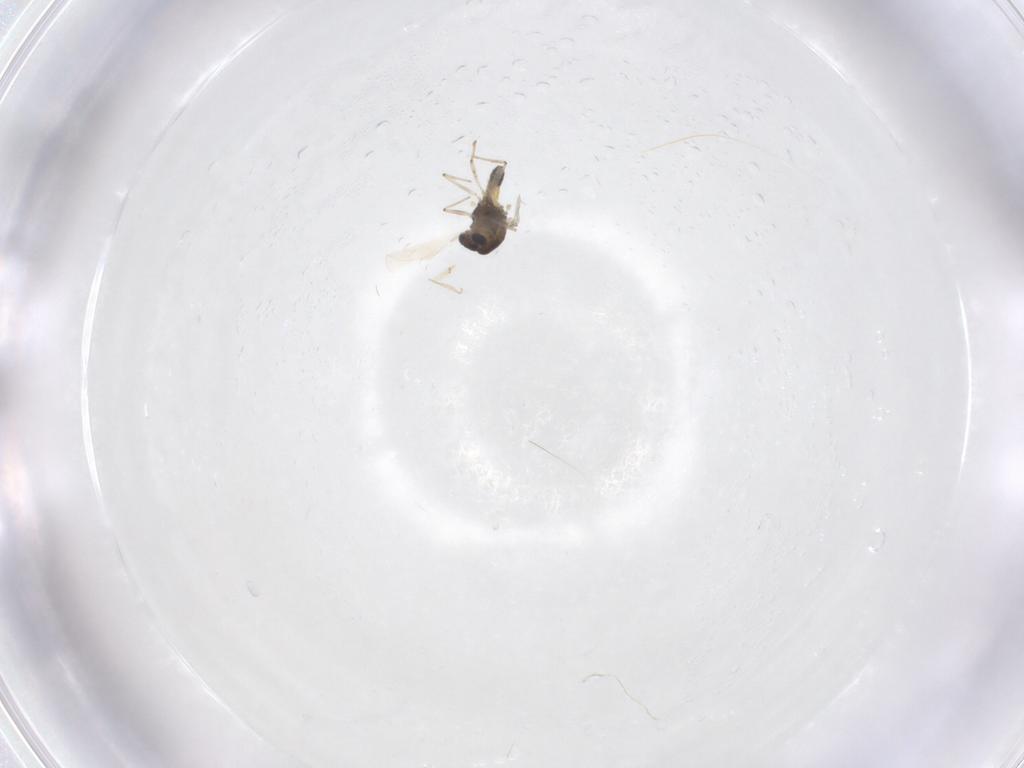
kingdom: Animalia
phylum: Arthropoda
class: Insecta
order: Diptera
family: Chironomidae
